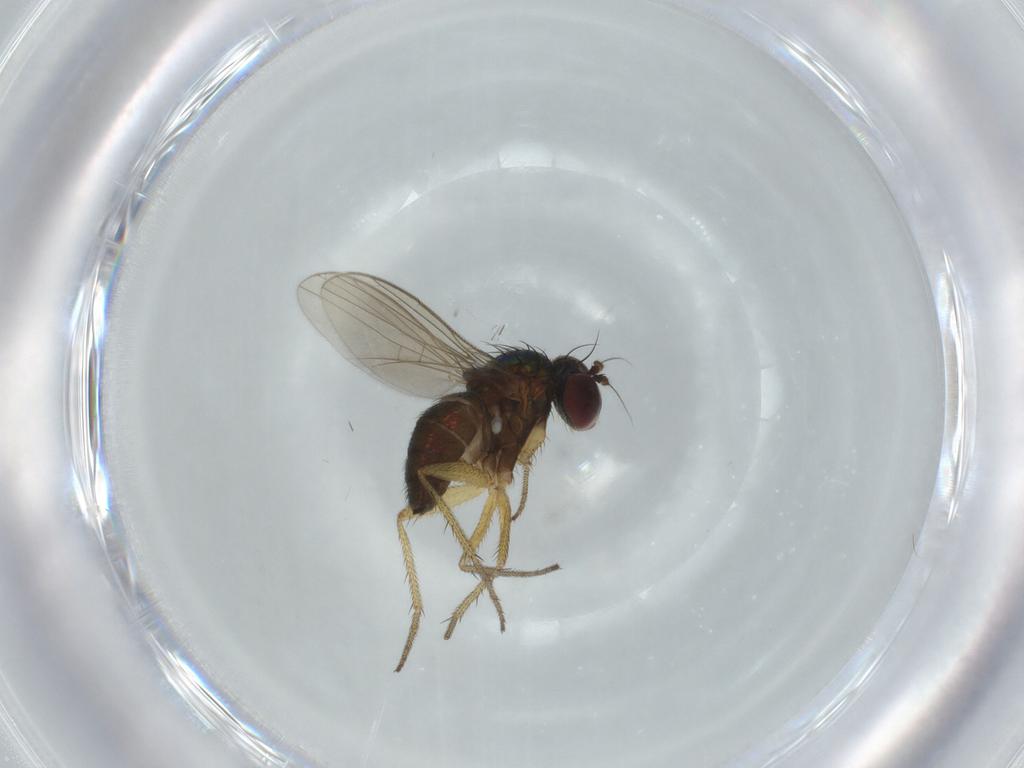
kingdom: Animalia
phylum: Arthropoda
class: Insecta
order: Diptera
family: Dolichopodidae
